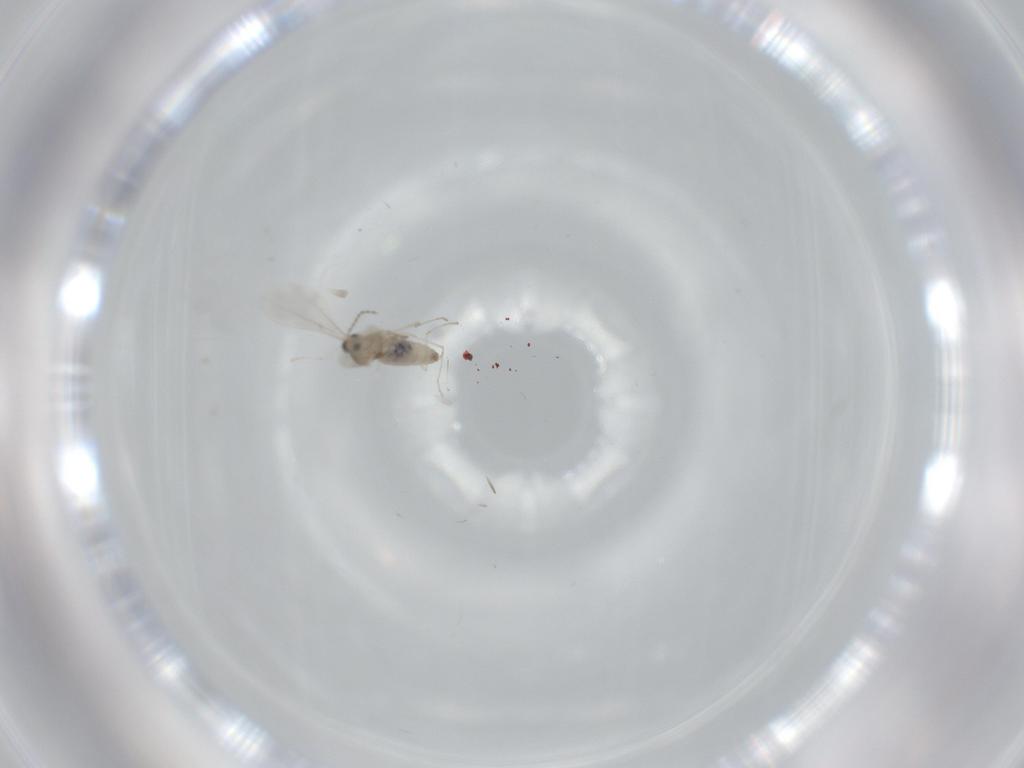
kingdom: Animalia
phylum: Arthropoda
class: Insecta
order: Diptera
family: Cecidomyiidae
